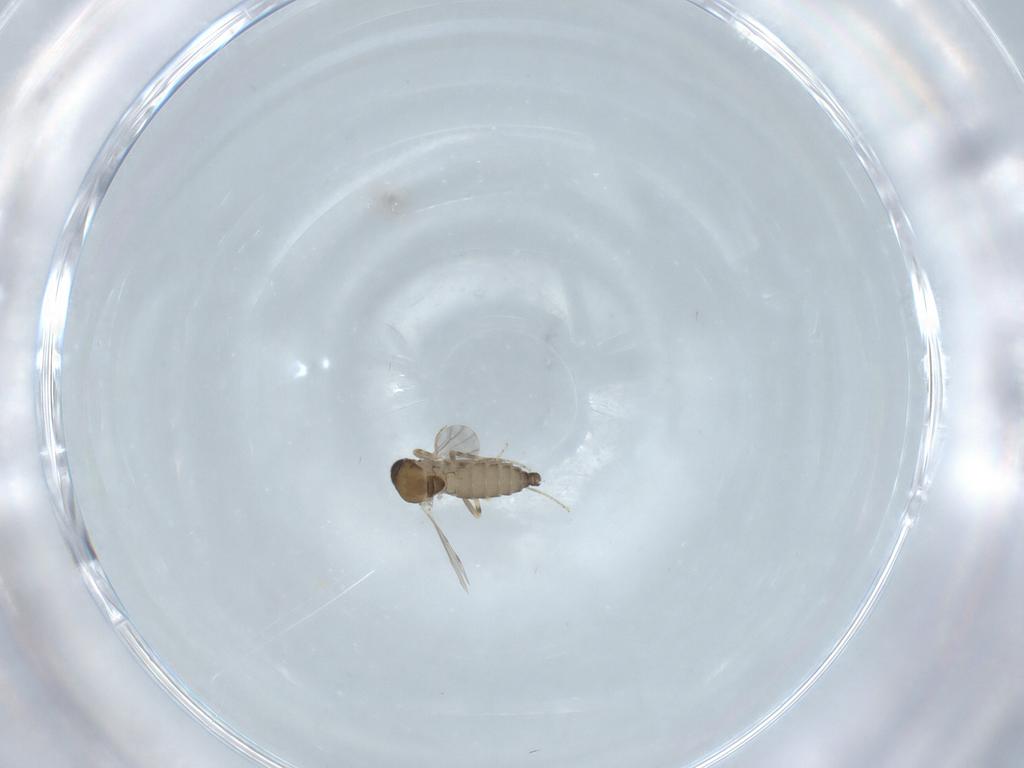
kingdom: Animalia
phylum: Arthropoda
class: Insecta
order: Diptera
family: Ceratopogonidae
